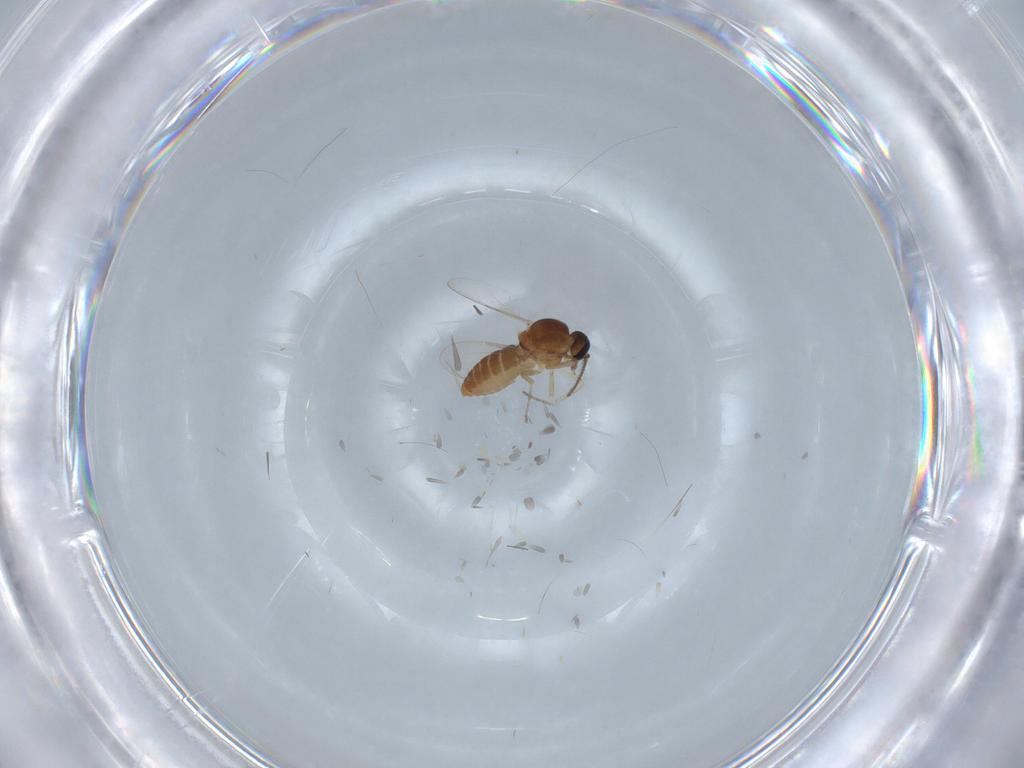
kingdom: Animalia
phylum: Arthropoda
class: Insecta
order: Diptera
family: Ceratopogonidae
